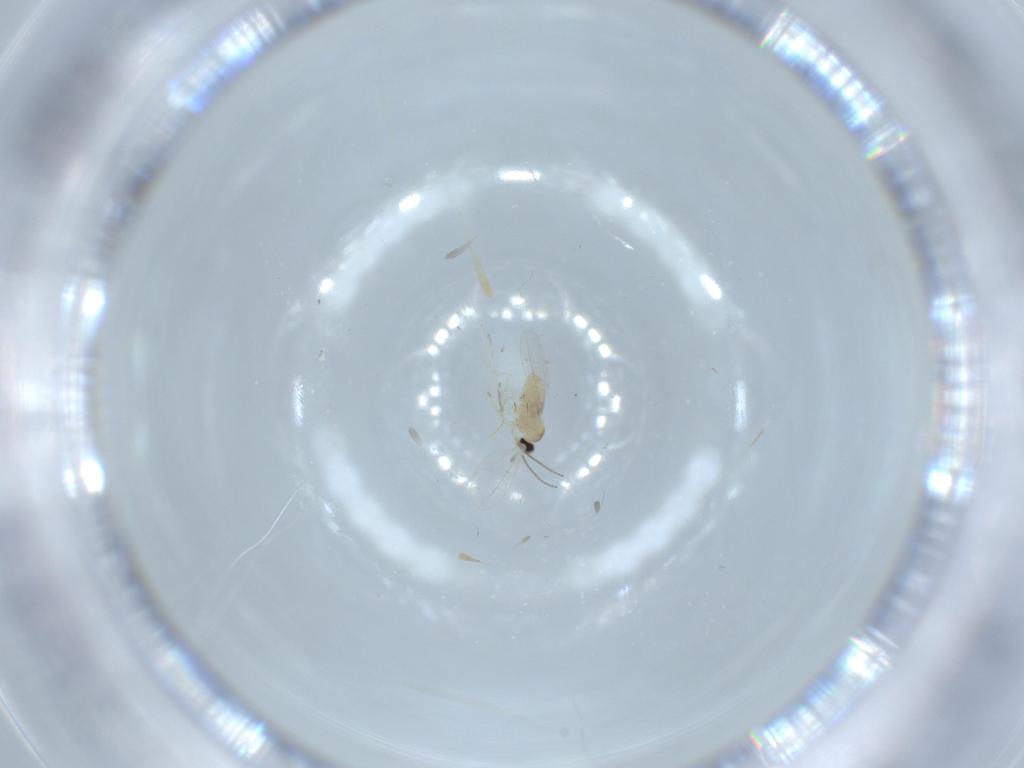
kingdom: Animalia
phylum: Arthropoda
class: Insecta
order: Diptera
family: Cecidomyiidae
